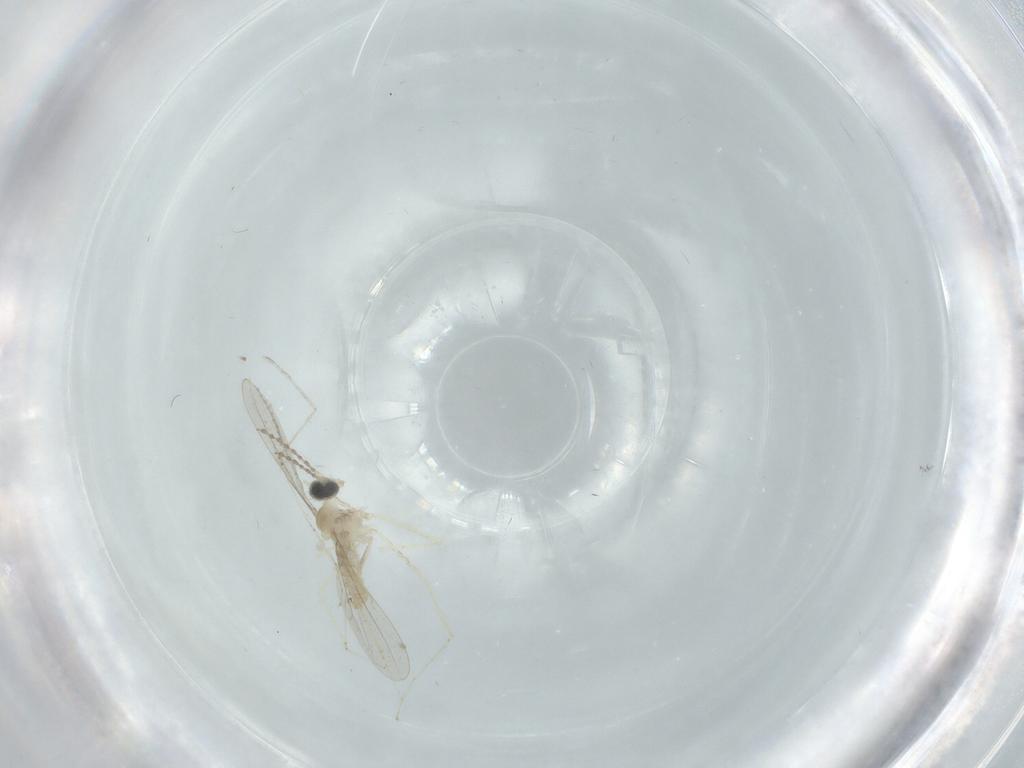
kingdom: Animalia
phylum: Arthropoda
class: Insecta
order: Diptera
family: Cecidomyiidae
